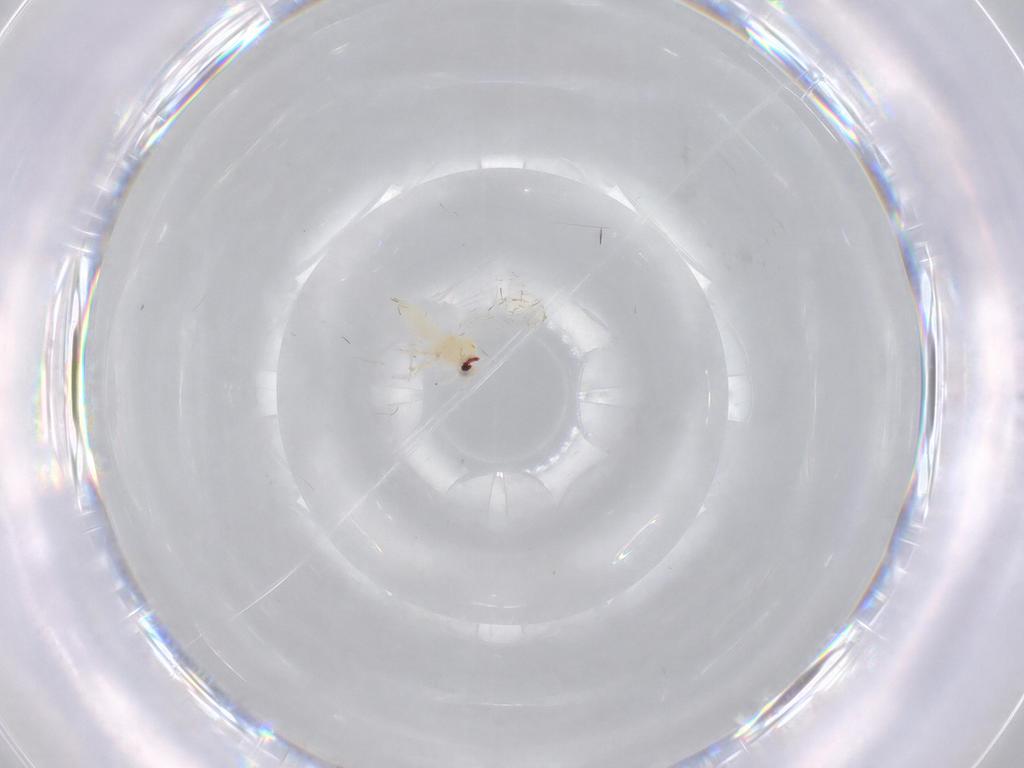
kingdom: Animalia
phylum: Arthropoda
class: Insecta
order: Hemiptera
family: Aleyrodidae
